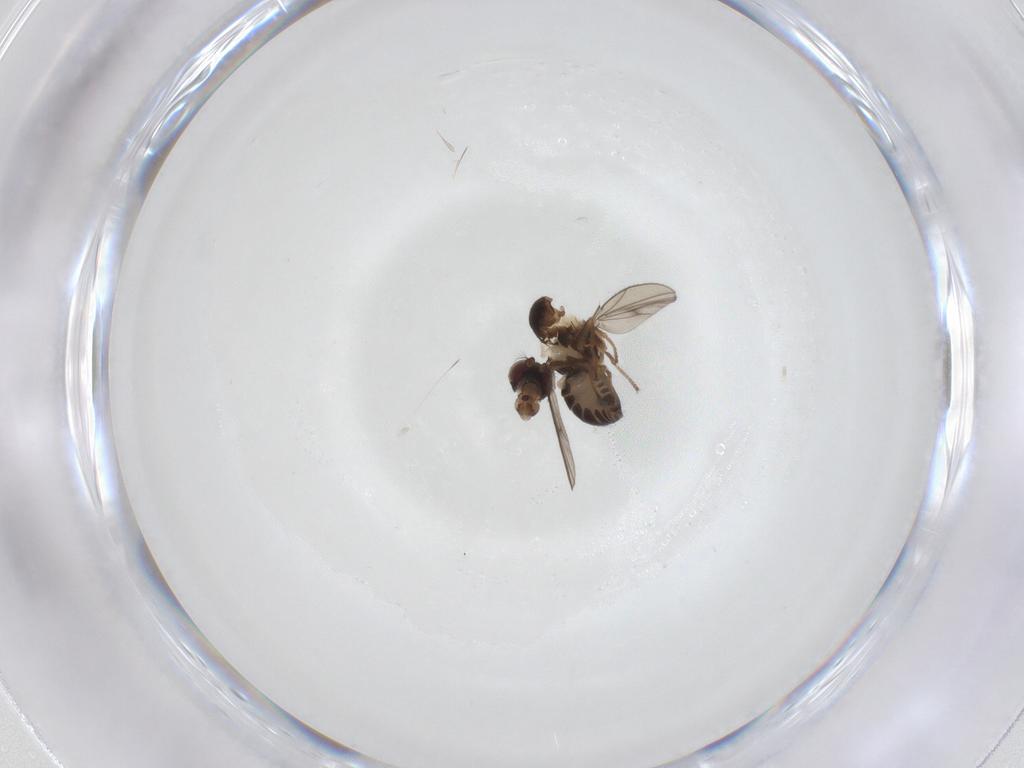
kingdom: Animalia
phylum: Arthropoda
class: Insecta
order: Diptera
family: Ephydridae
